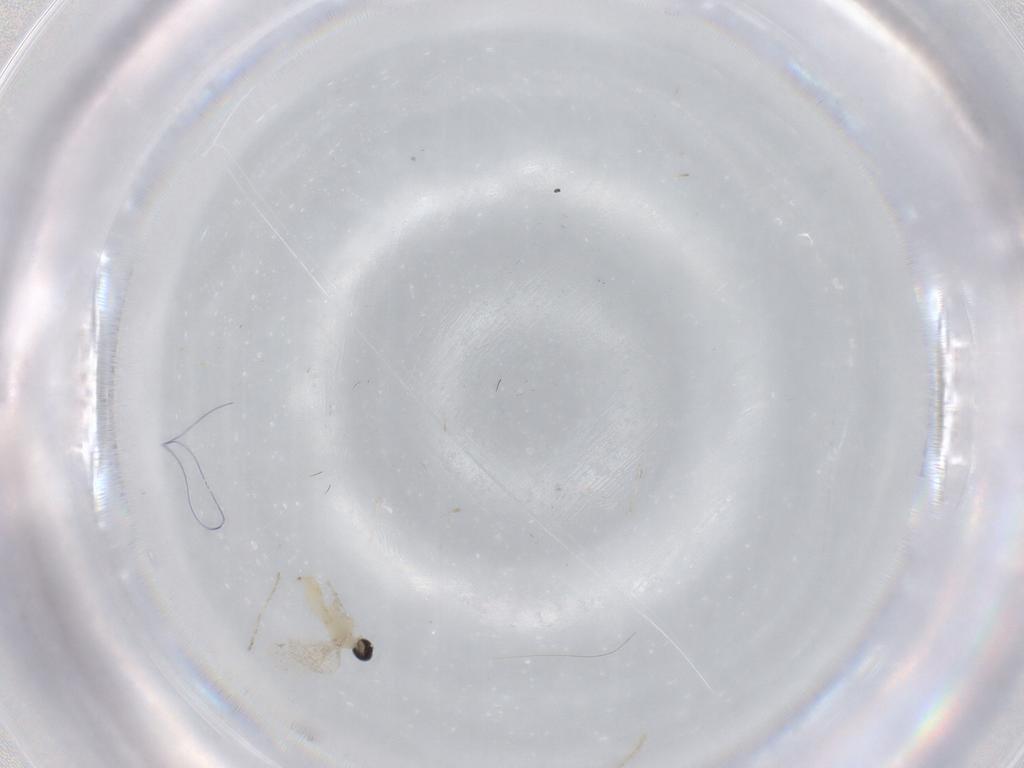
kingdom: Animalia
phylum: Arthropoda
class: Insecta
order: Diptera
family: Cecidomyiidae
